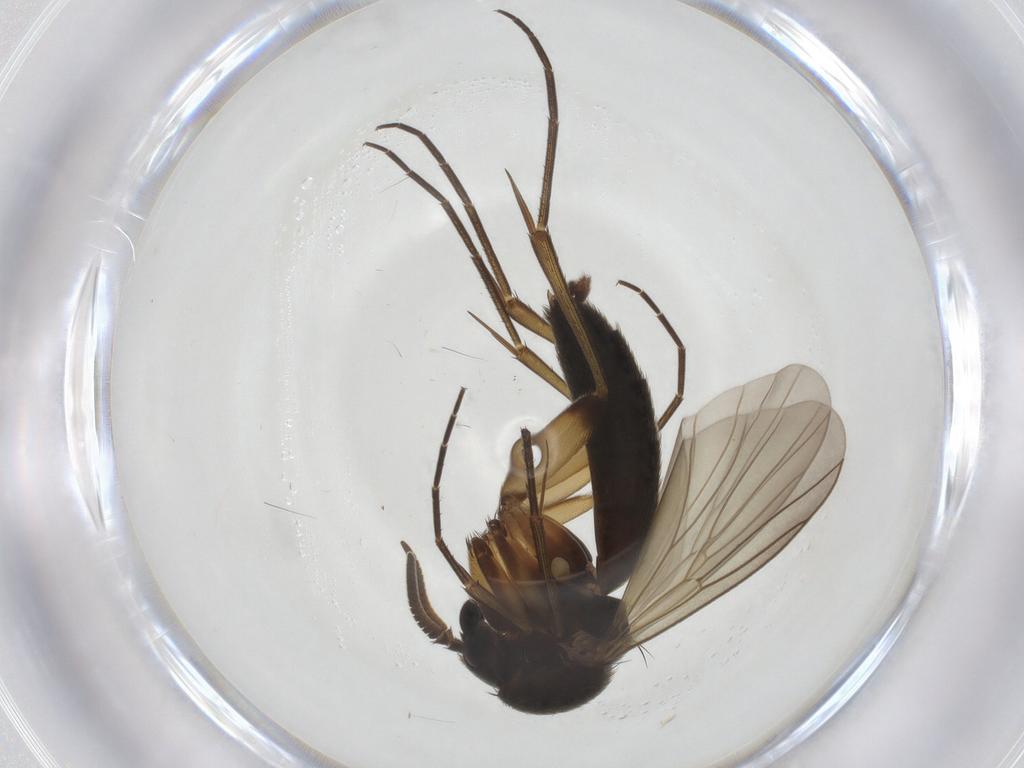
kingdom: Animalia
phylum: Arthropoda
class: Insecta
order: Diptera
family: Mycetophilidae
